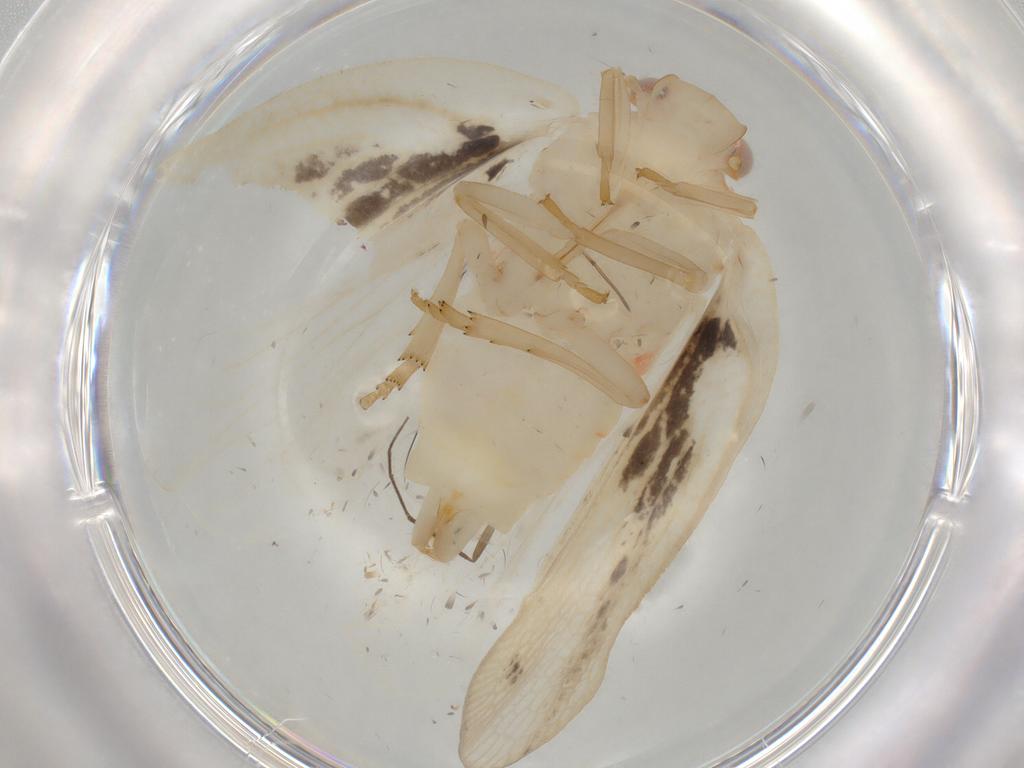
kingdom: Animalia
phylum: Arthropoda
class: Insecta
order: Hemiptera
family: Flatidae
